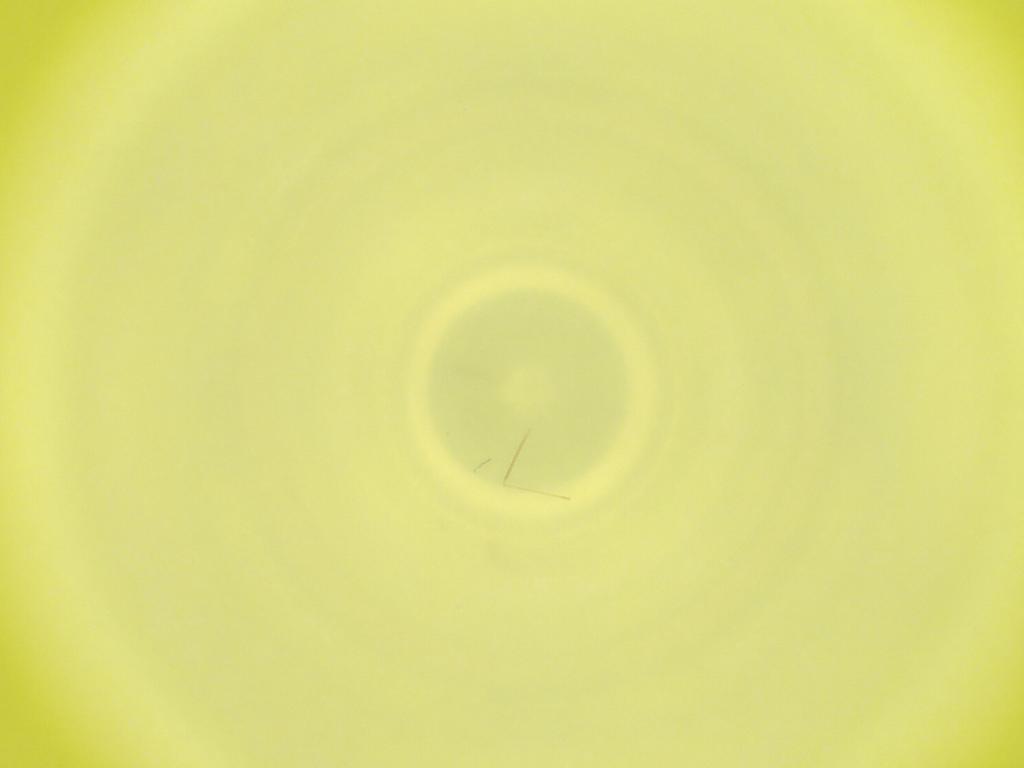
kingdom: Animalia
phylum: Arthropoda
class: Insecta
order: Diptera
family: Cecidomyiidae
